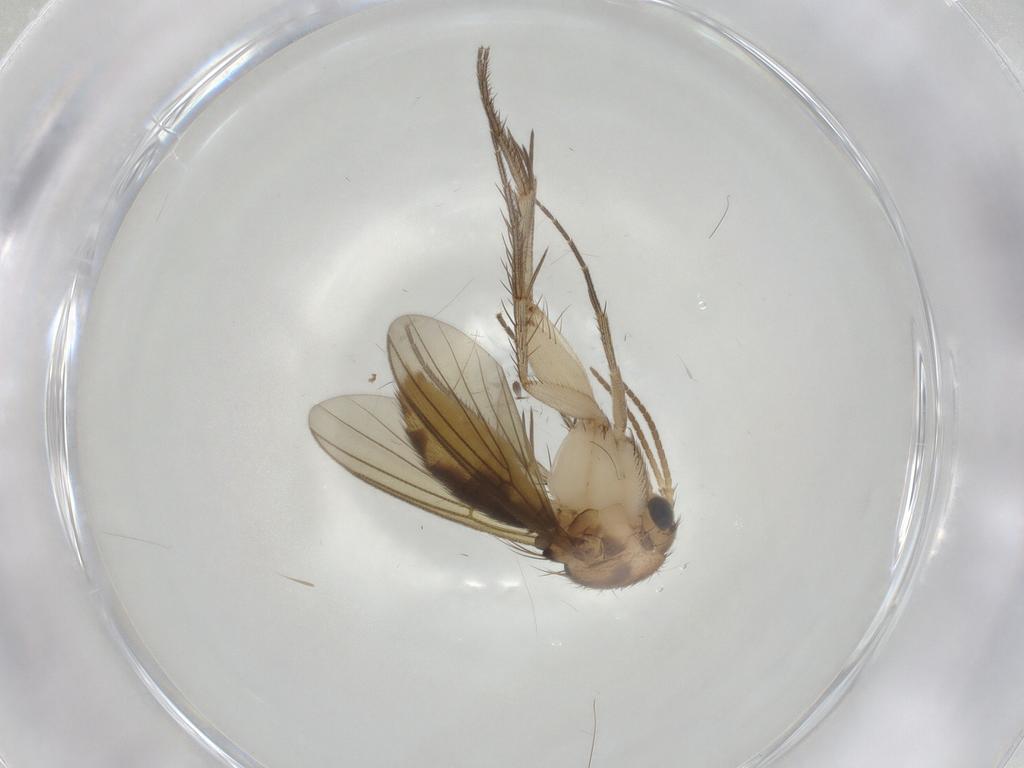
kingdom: Animalia
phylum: Arthropoda
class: Insecta
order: Diptera
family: Mycetophilidae
